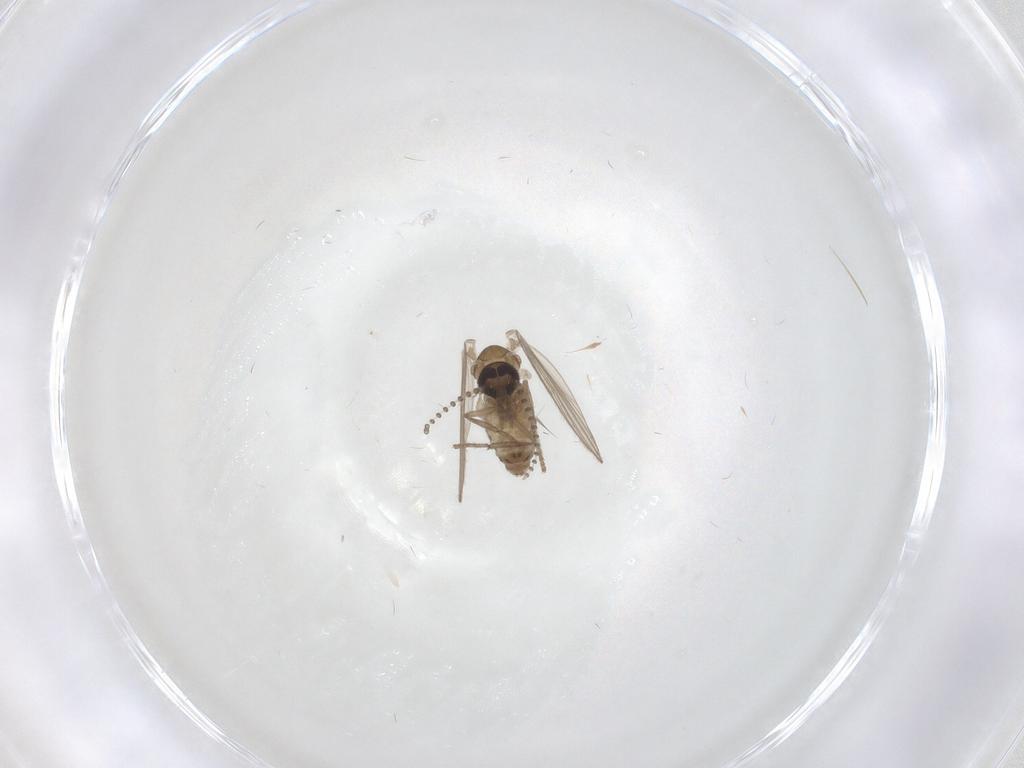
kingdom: Animalia
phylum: Arthropoda
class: Insecta
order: Diptera
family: Psychodidae
